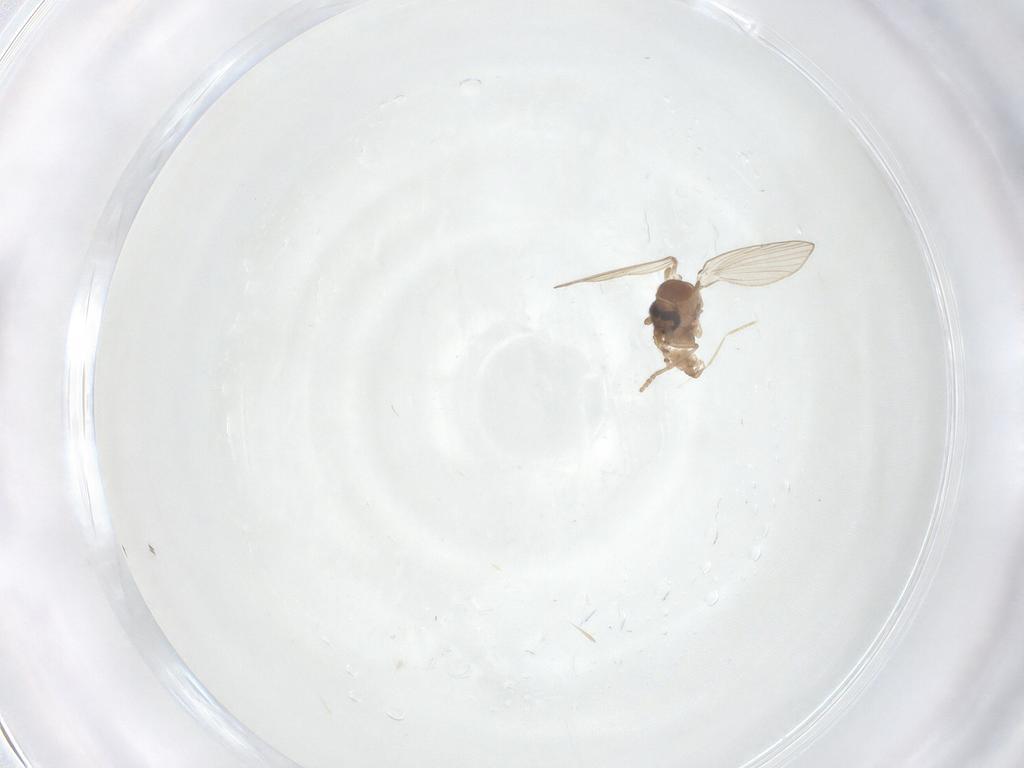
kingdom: Animalia
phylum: Arthropoda
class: Insecta
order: Diptera
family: Psychodidae
